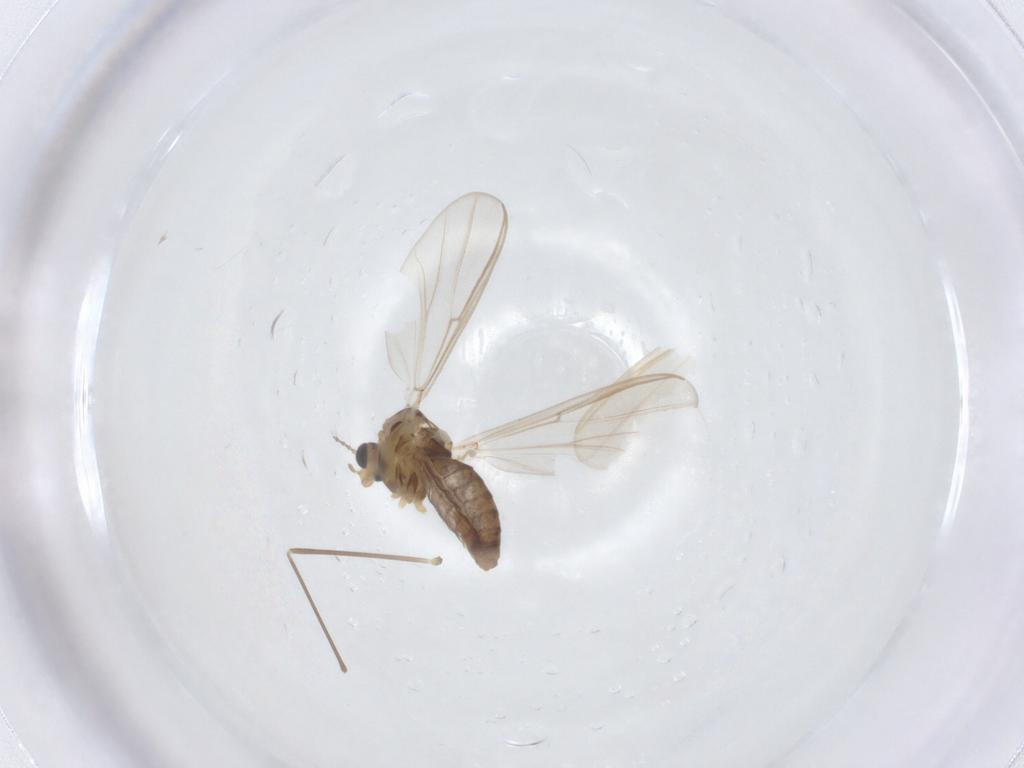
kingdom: Animalia
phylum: Arthropoda
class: Insecta
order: Diptera
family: Chironomidae
